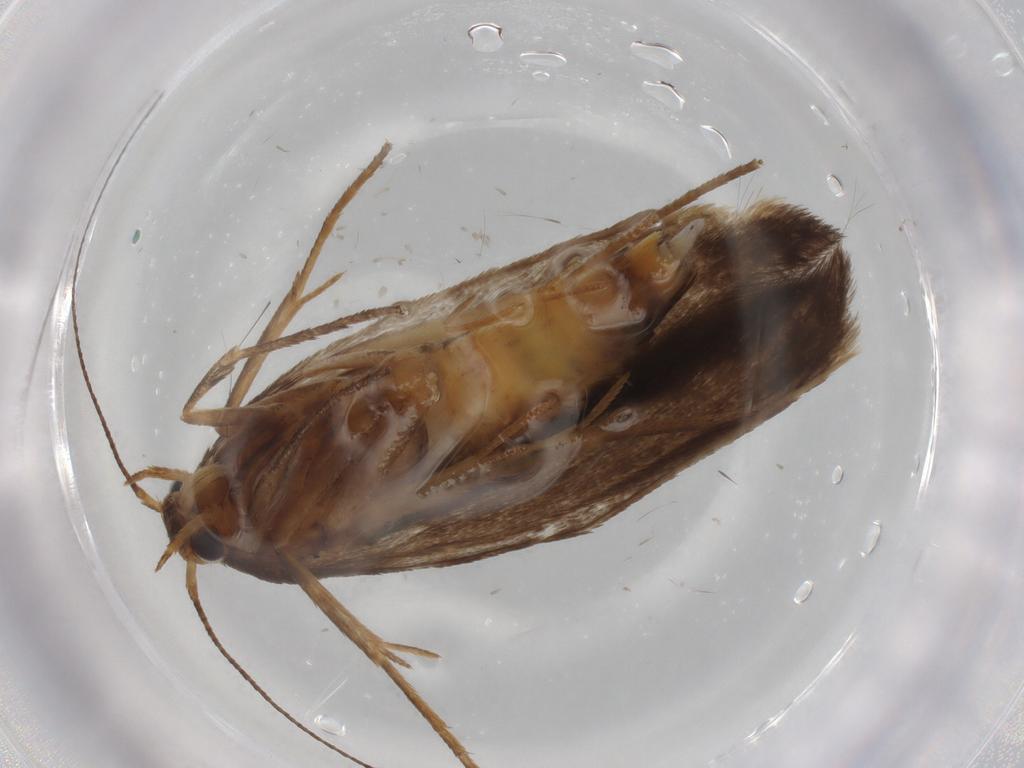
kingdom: Animalia
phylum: Arthropoda
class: Insecta
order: Lepidoptera
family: Scythrididae
